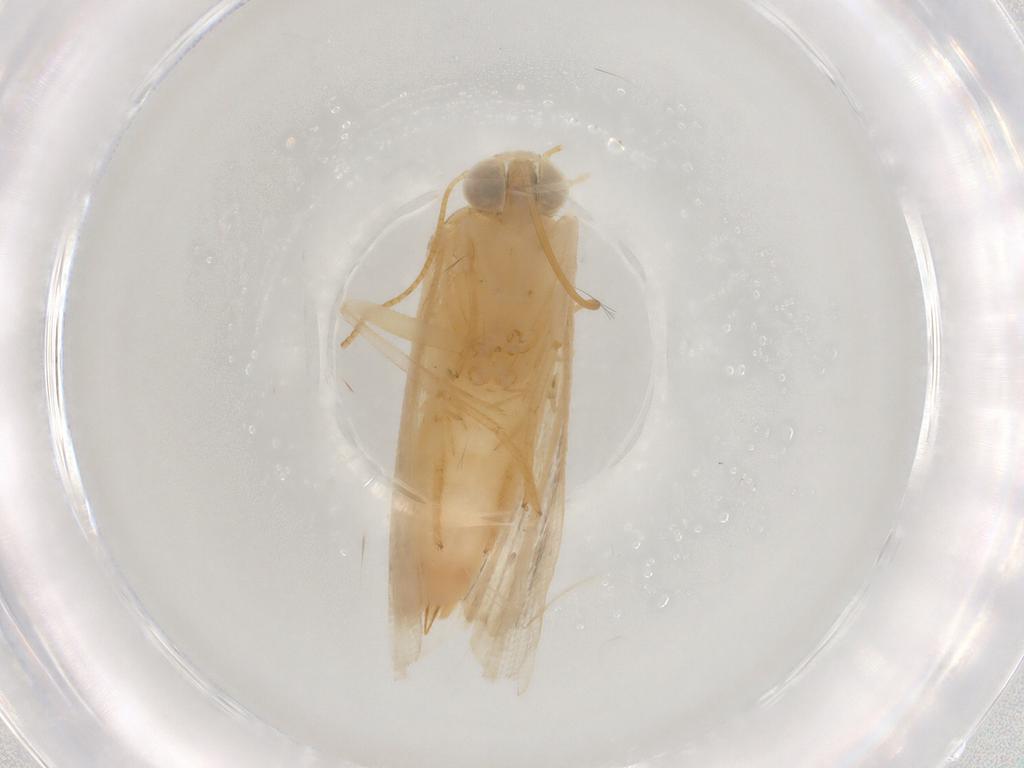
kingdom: Animalia
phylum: Arthropoda
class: Insecta
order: Lepidoptera
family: Noctuidae
